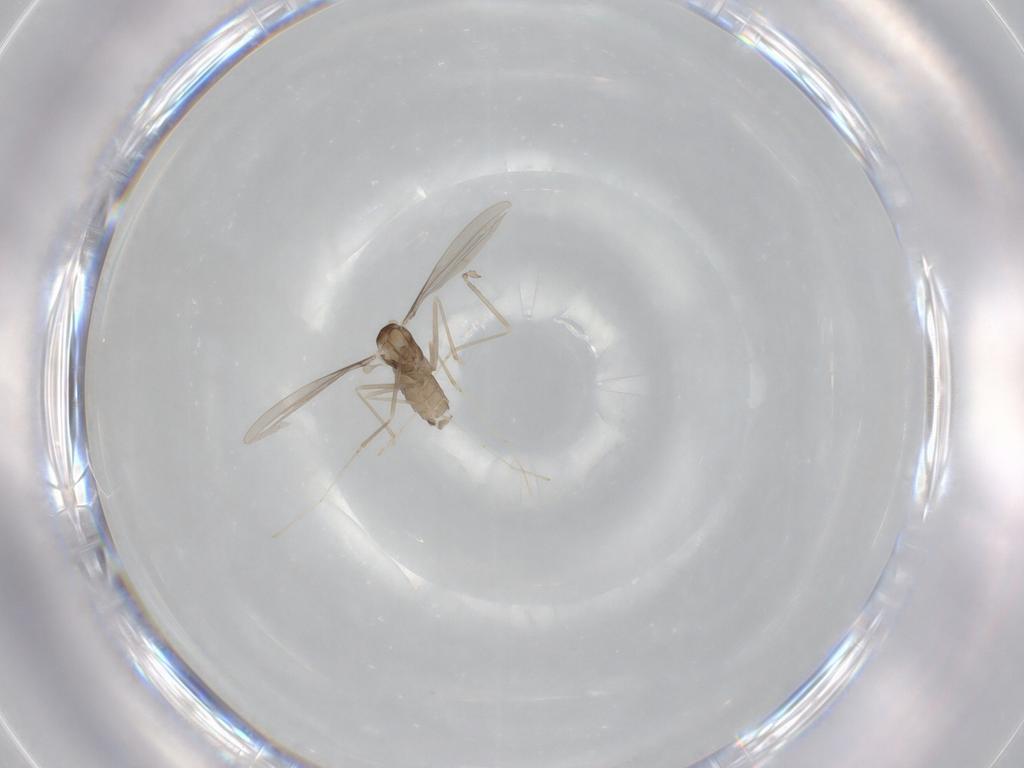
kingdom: Animalia
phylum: Arthropoda
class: Insecta
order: Diptera
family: Cecidomyiidae
